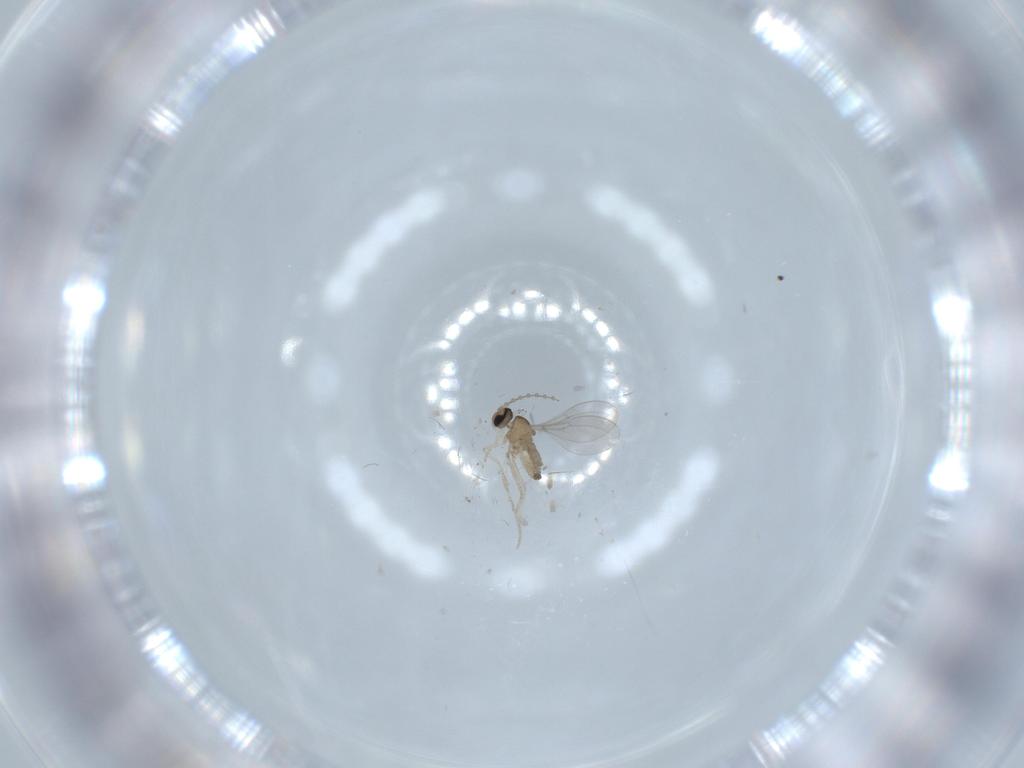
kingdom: Animalia
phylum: Arthropoda
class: Insecta
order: Diptera
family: Cecidomyiidae
